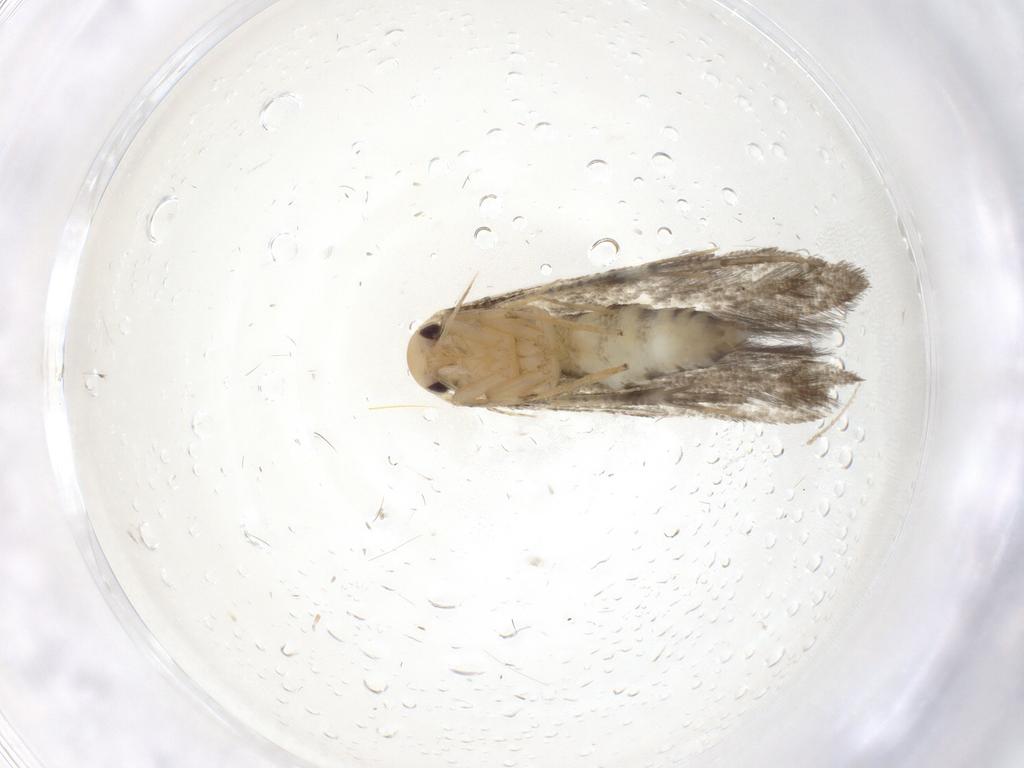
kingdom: Animalia
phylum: Arthropoda
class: Insecta
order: Lepidoptera
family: Stathmopodidae
